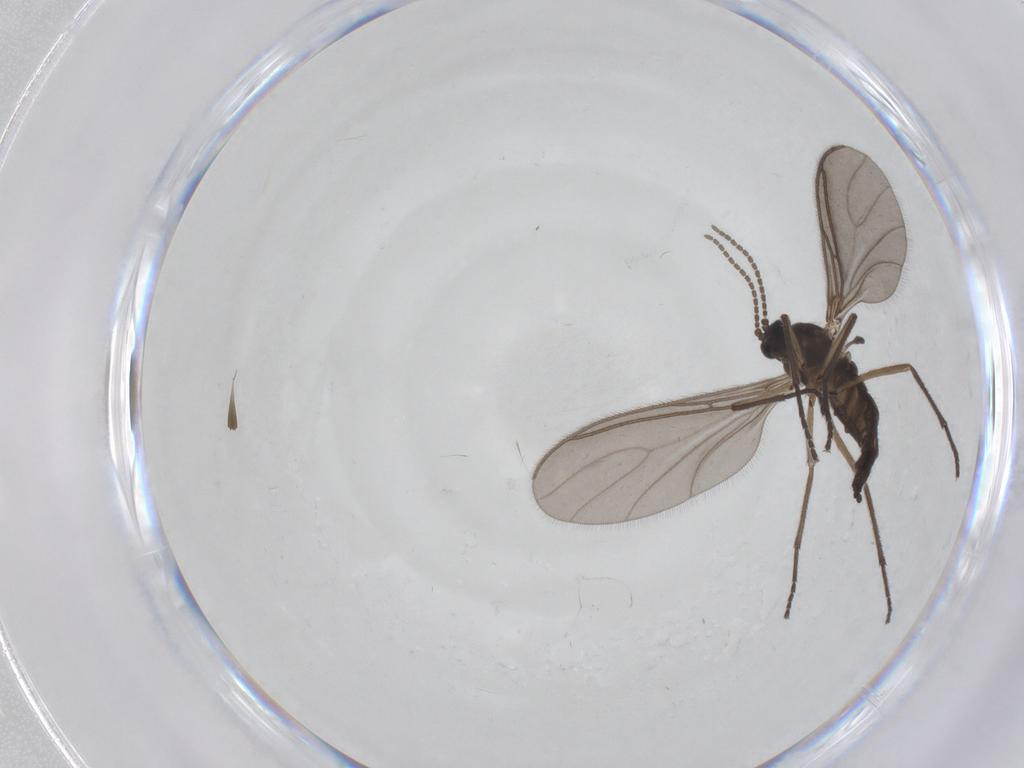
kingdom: Animalia
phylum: Arthropoda
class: Insecta
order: Diptera
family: Sciaridae
